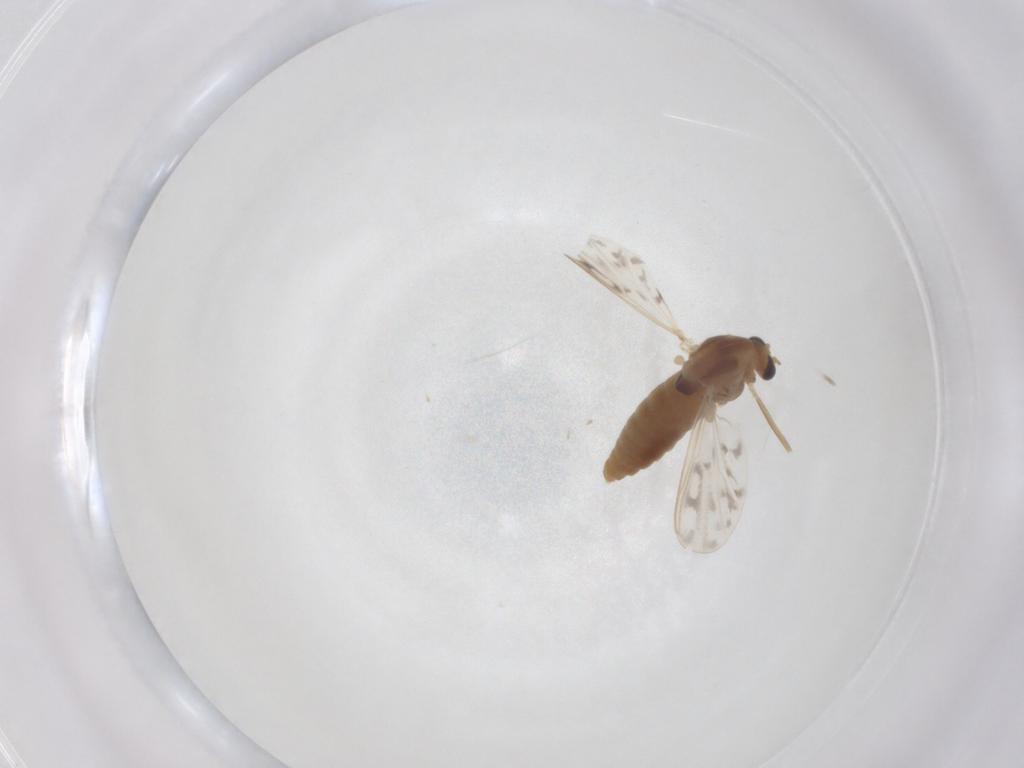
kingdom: Animalia
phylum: Arthropoda
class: Insecta
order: Diptera
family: Chironomidae
